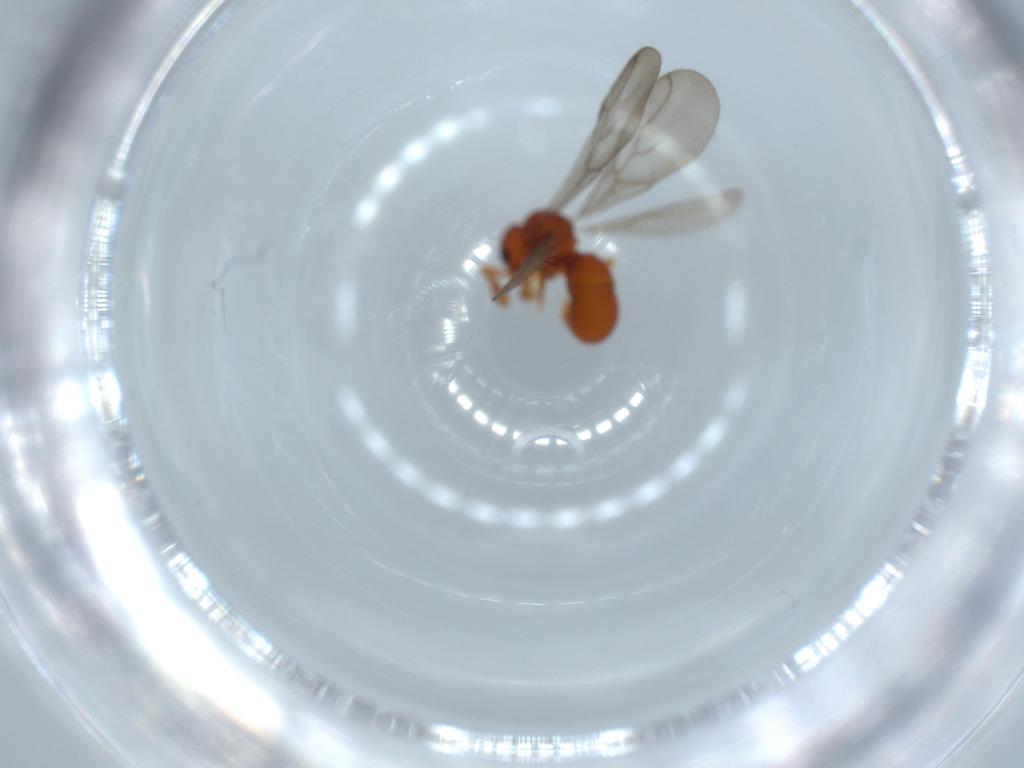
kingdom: Animalia
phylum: Arthropoda
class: Insecta
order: Hymenoptera
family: Formicidae
